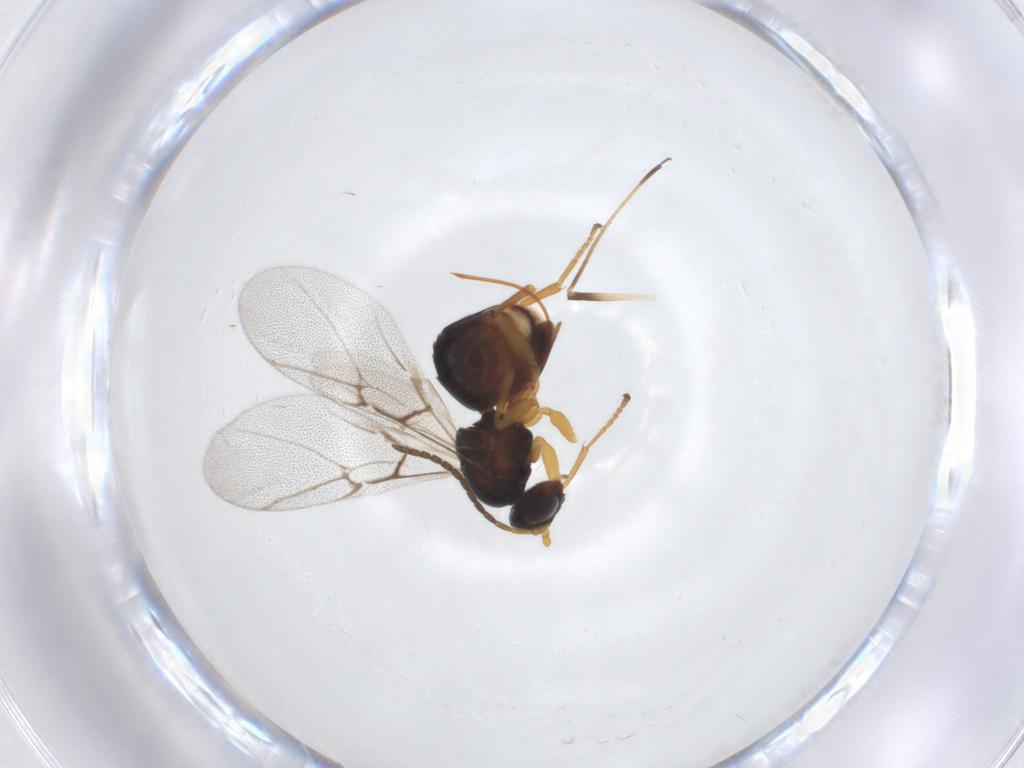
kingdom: Animalia
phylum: Arthropoda
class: Insecta
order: Hymenoptera
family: Cynipidae
